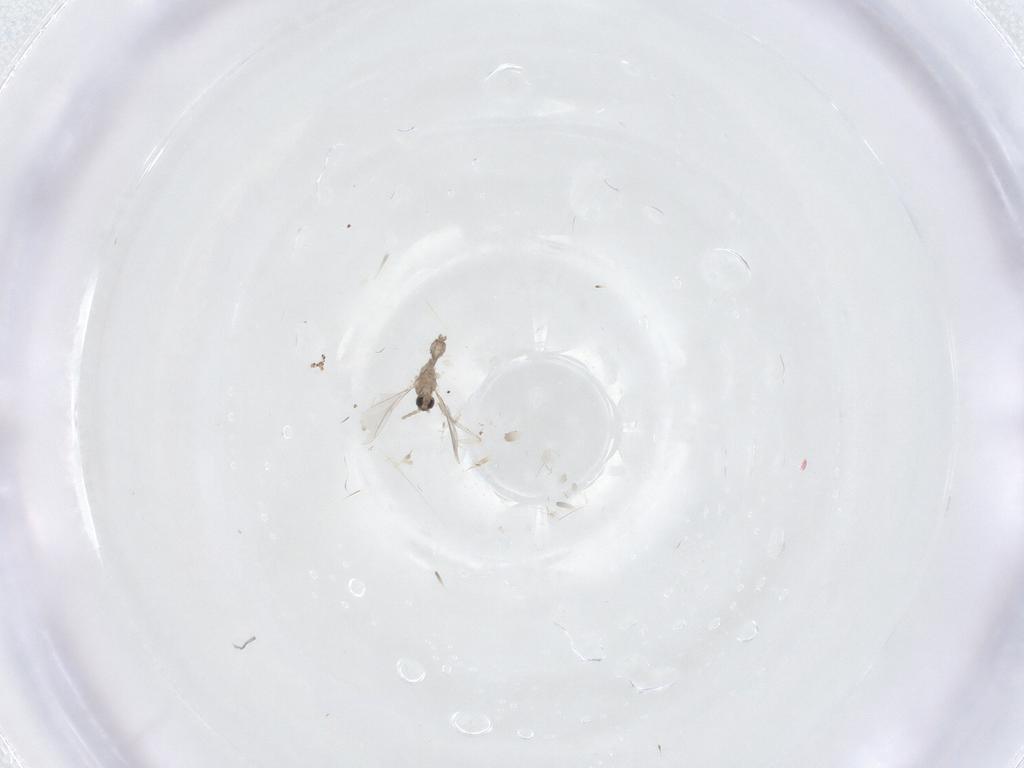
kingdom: Animalia
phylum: Arthropoda
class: Insecta
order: Diptera
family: Cecidomyiidae
